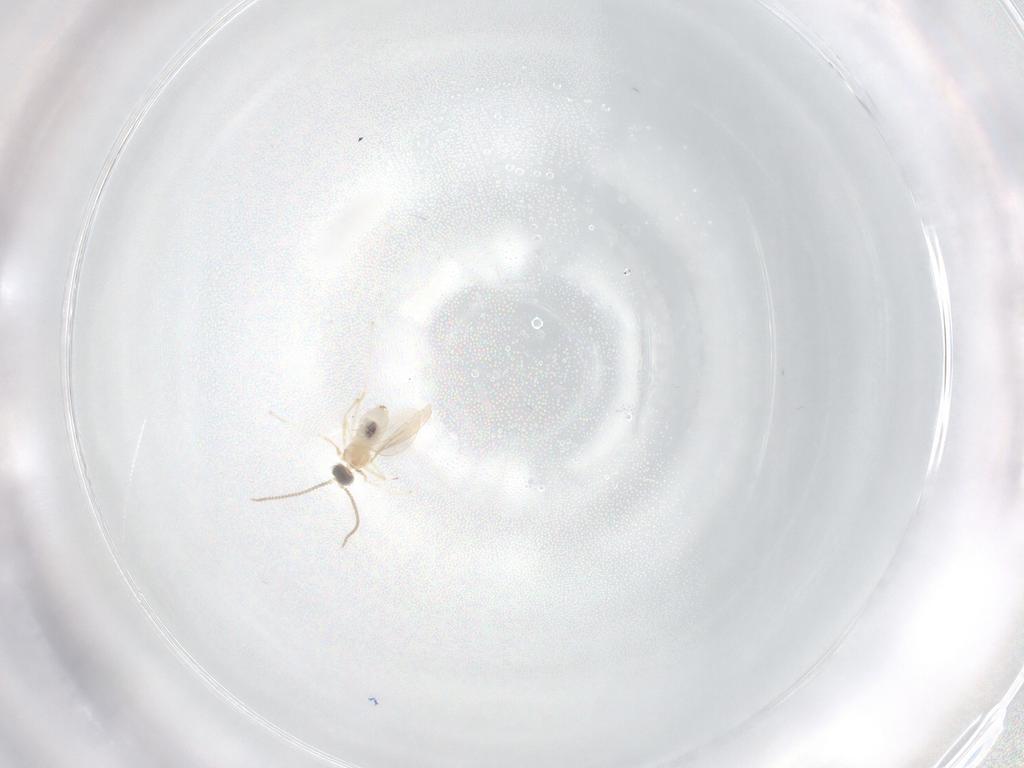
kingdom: Animalia
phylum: Arthropoda
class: Insecta
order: Diptera
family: Cecidomyiidae
